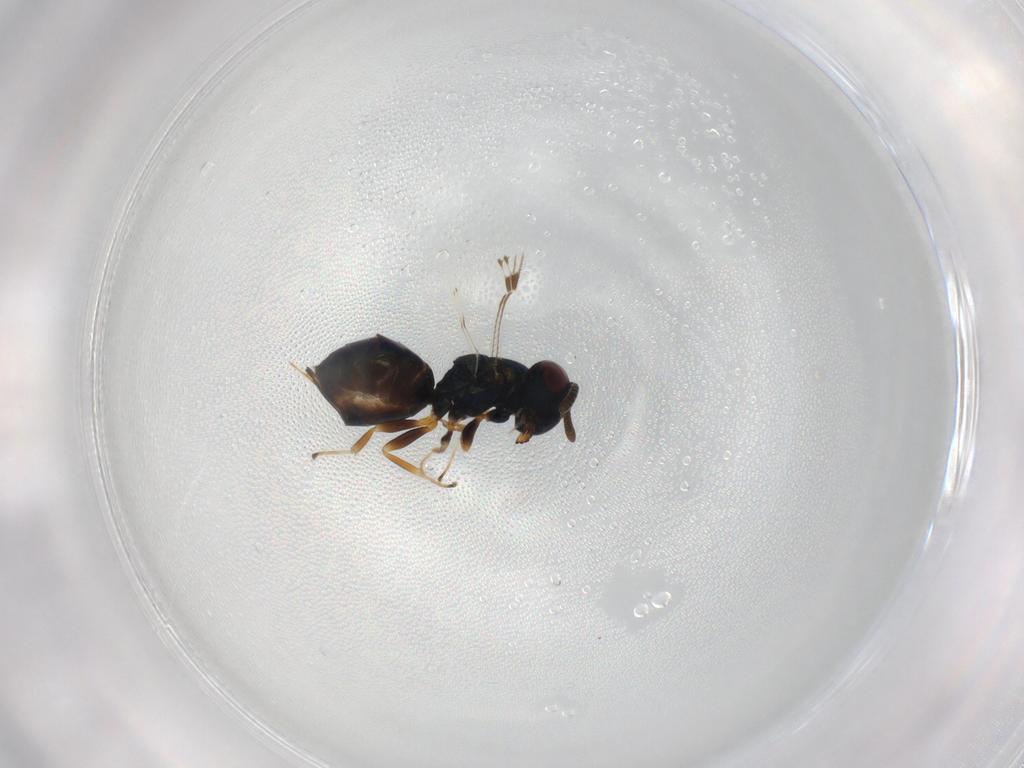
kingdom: Animalia
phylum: Arthropoda
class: Insecta
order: Hymenoptera
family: Pteromalidae
